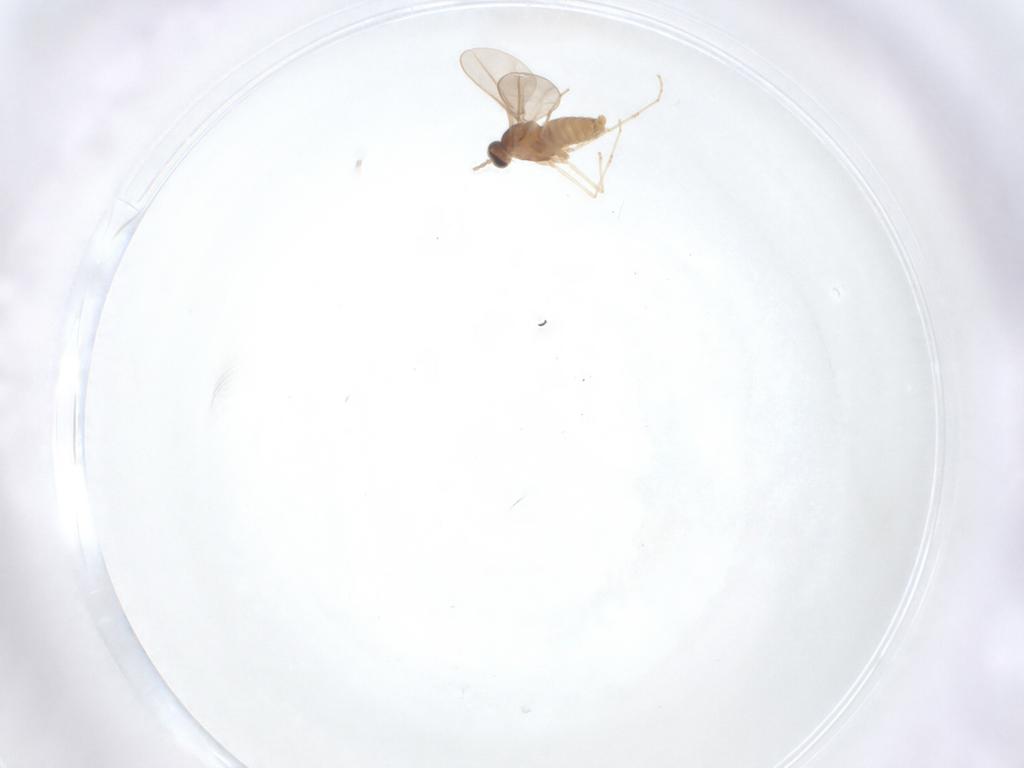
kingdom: Animalia
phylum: Arthropoda
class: Insecta
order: Diptera
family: Cecidomyiidae
